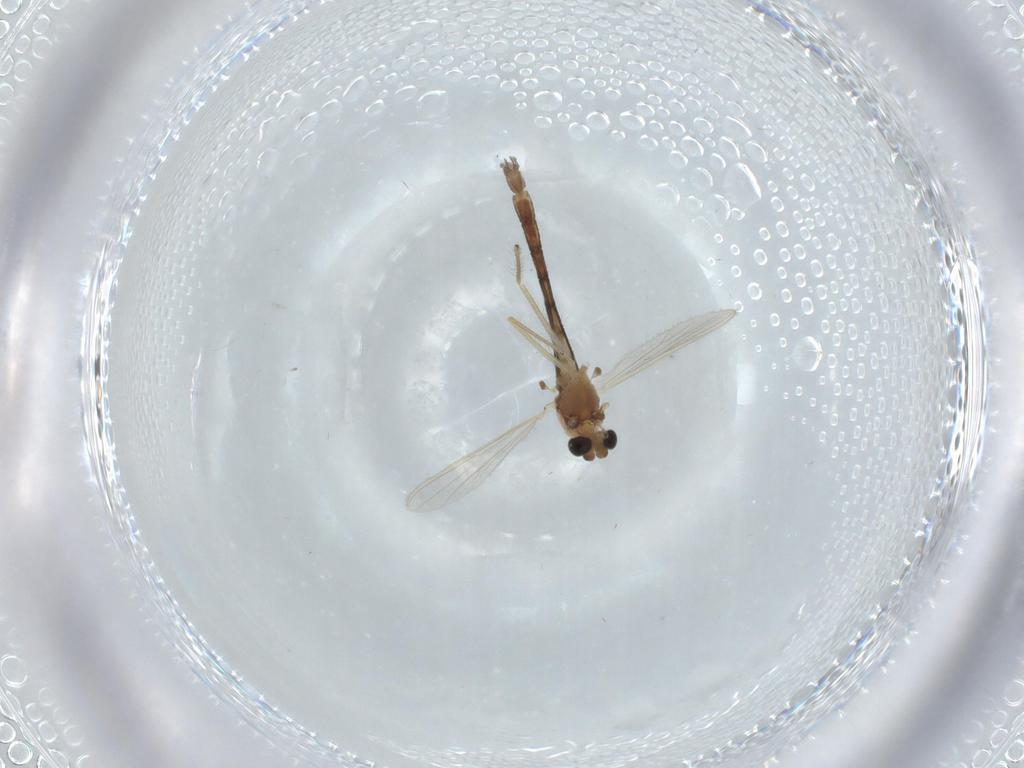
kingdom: Animalia
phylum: Arthropoda
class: Insecta
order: Diptera
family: Chironomidae
